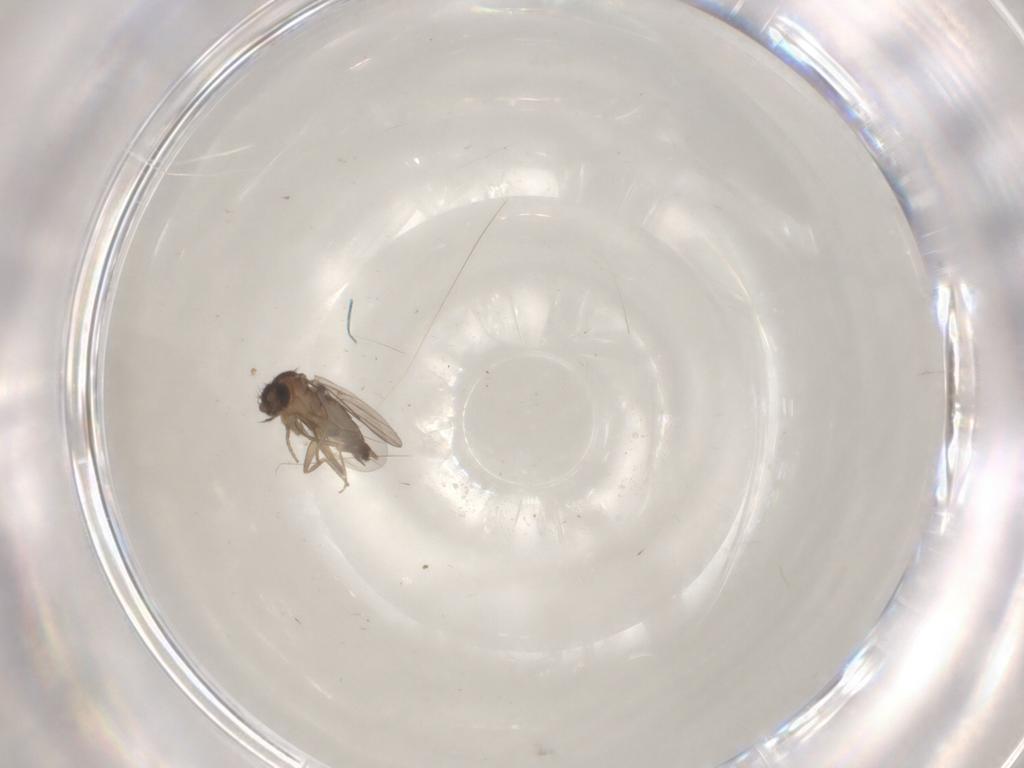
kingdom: Animalia
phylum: Arthropoda
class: Insecta
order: Diptera
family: Phoridae
